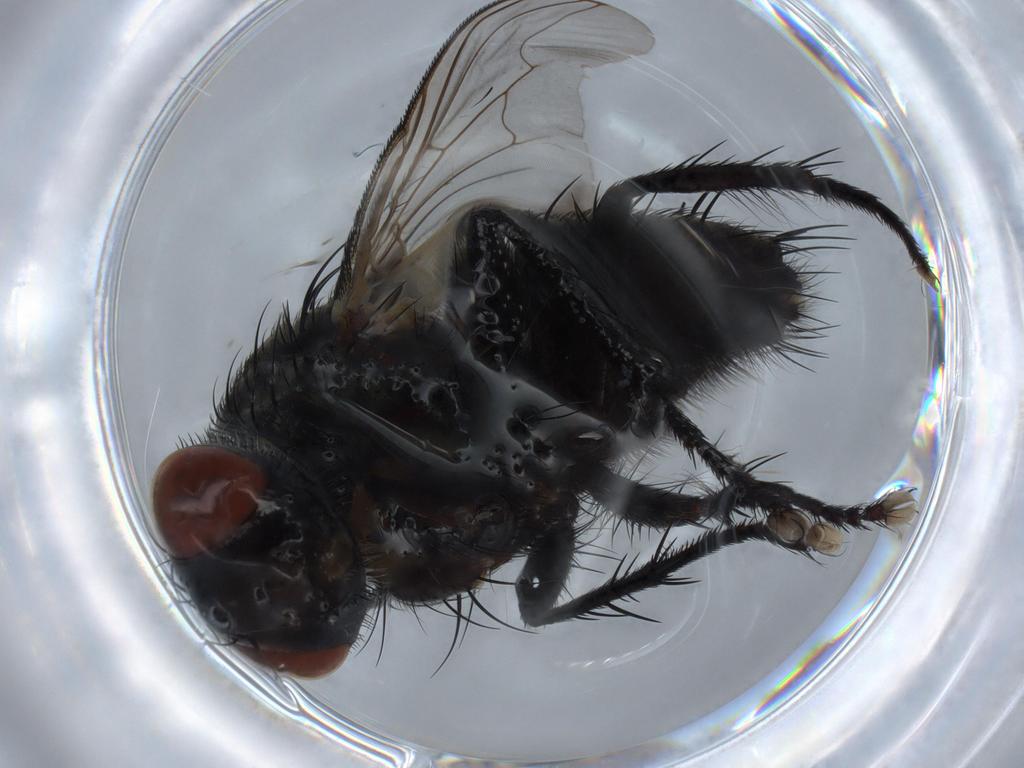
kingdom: Animalia
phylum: Arthropoda
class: Insecta
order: Diptera
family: Sarcophagidae
